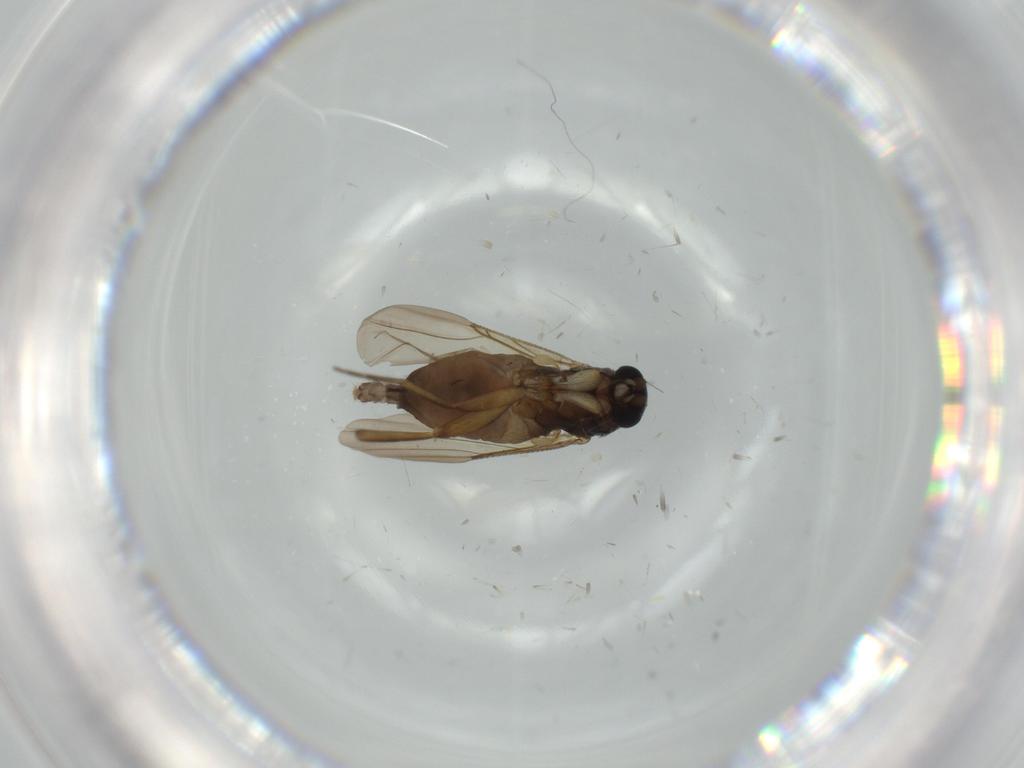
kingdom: Animalia
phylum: Arthropoda
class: Insecta
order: Diptera
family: Cecidomyiidae
